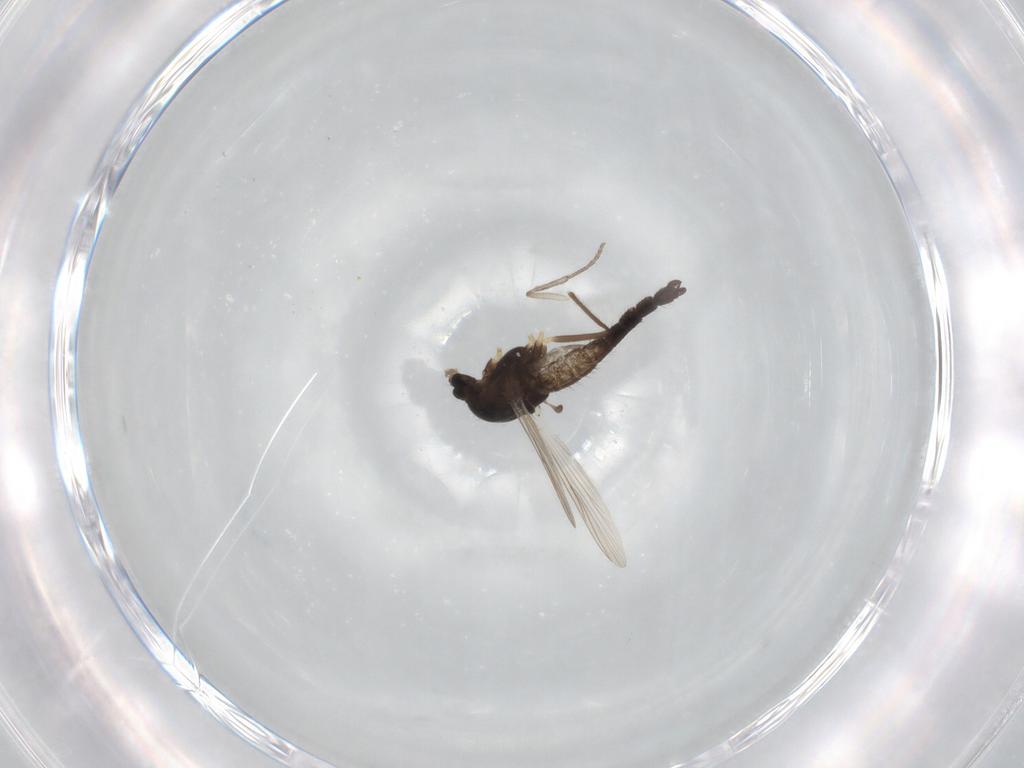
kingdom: Animalia
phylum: Arthropoda
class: Insecta
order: Diptera
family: Chironomidae
